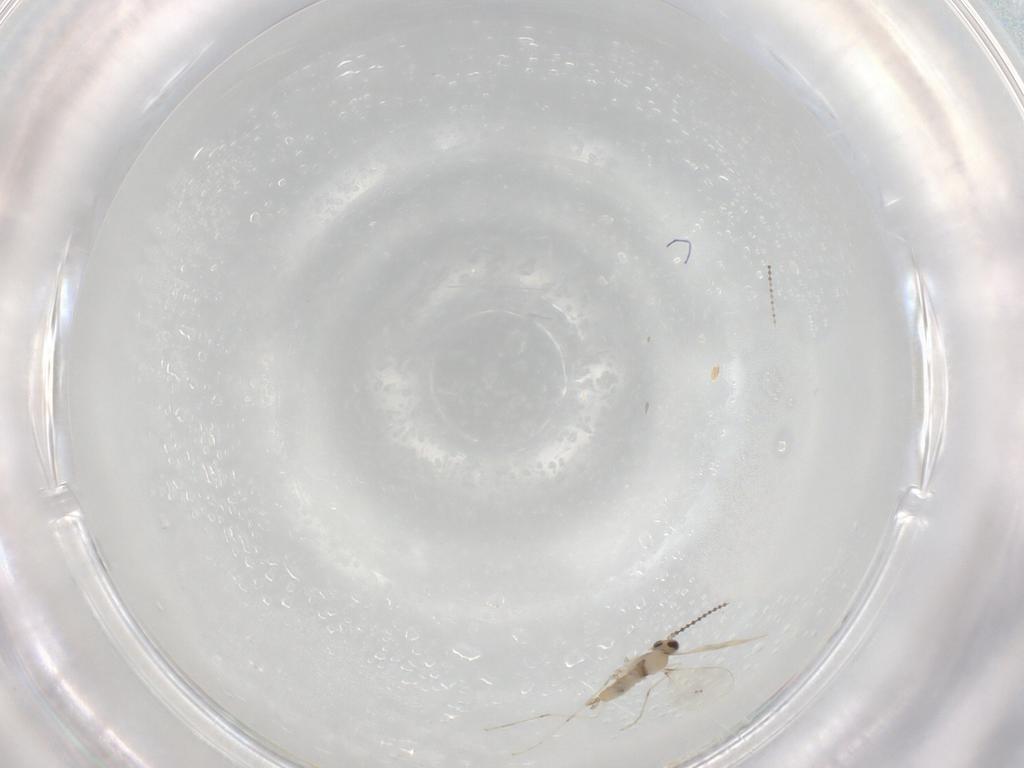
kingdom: Animalia
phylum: Arthropoda
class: Insecta
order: Diptera
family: Cecidomyiidae
